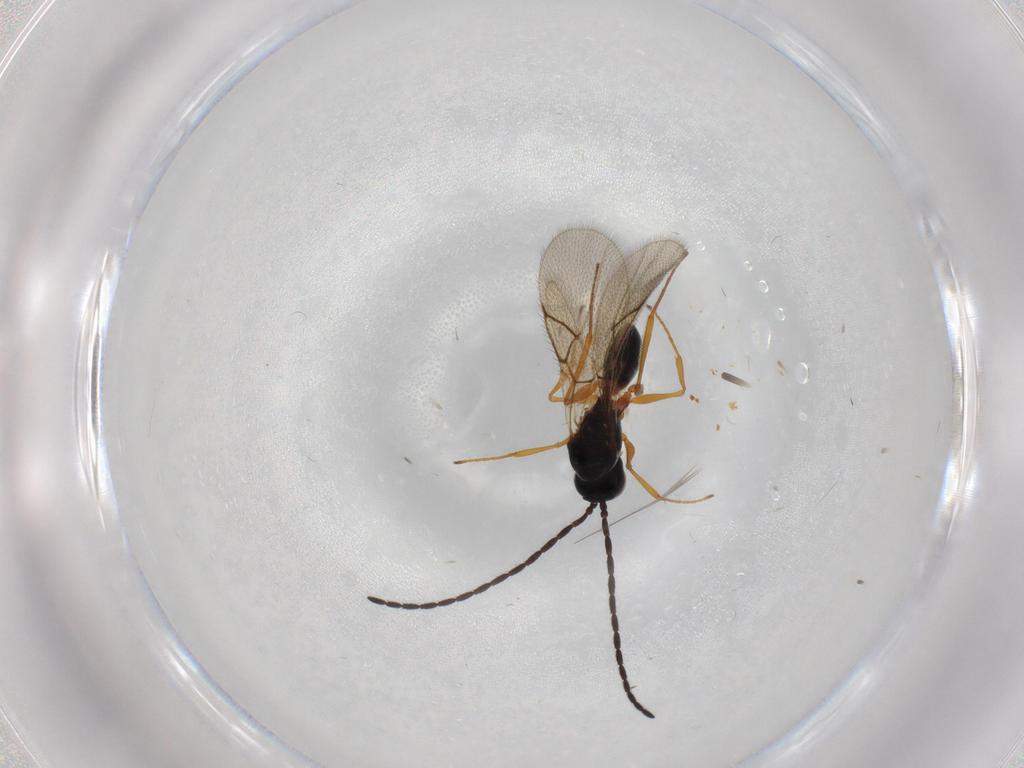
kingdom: Animalia
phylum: Arthropoda
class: Insecta
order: Hymenoptera
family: Figitidae
